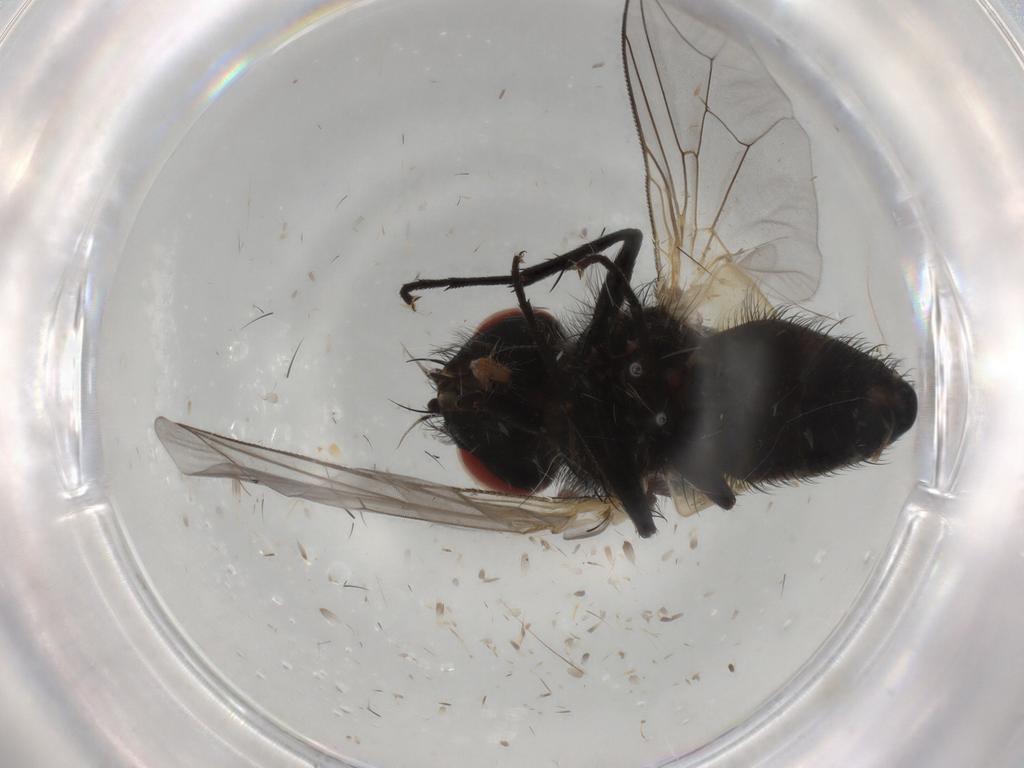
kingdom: Animalia
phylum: Arthropoda
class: Insecta
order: Diptera
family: Sarcophagidae
